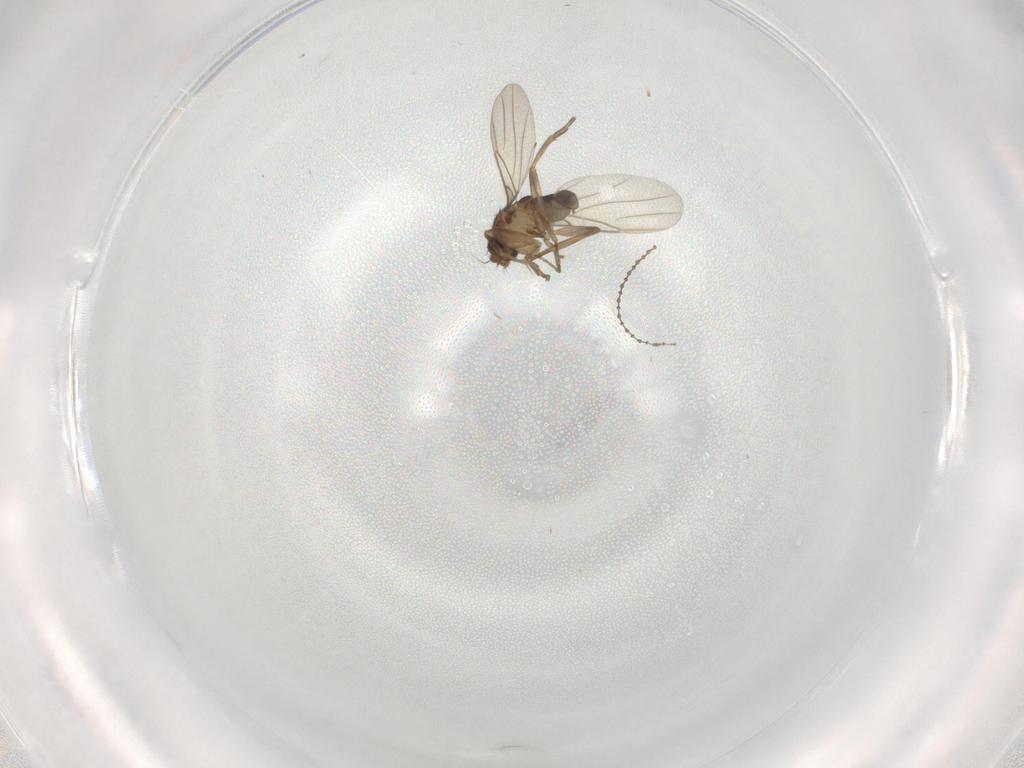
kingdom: Animalia
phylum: Arthropoda
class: Insecta
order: Diptera
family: Phoridae
